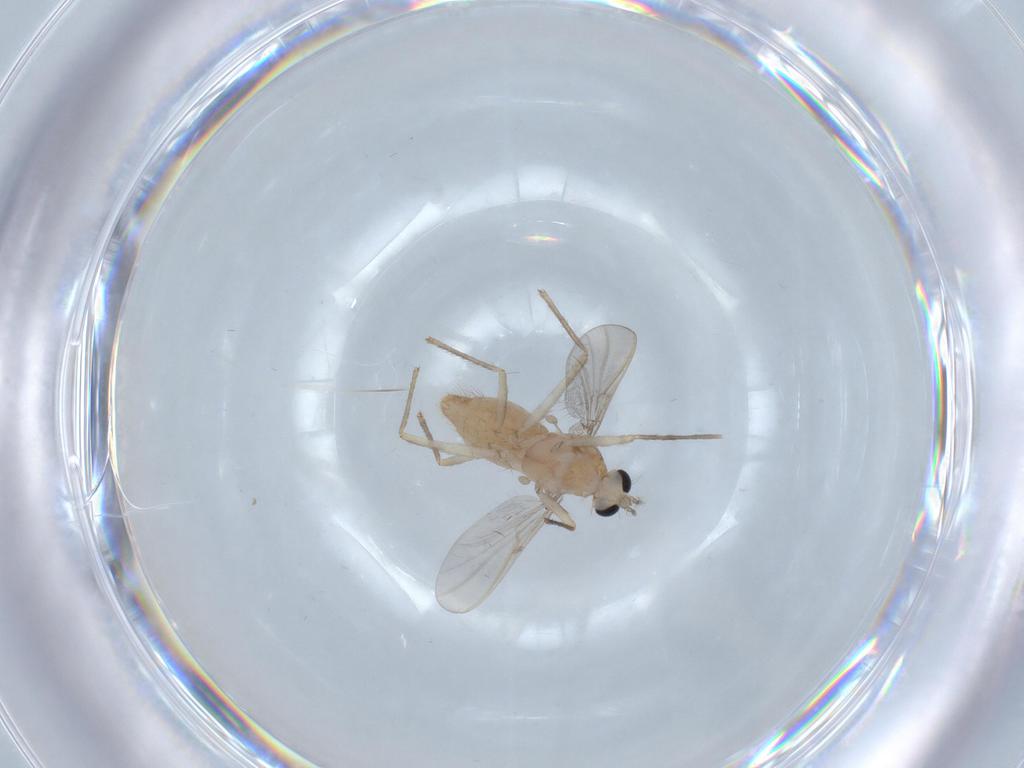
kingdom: Animalia
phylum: Arthropoda
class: Insecta
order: Diptera
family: Chironomidae
